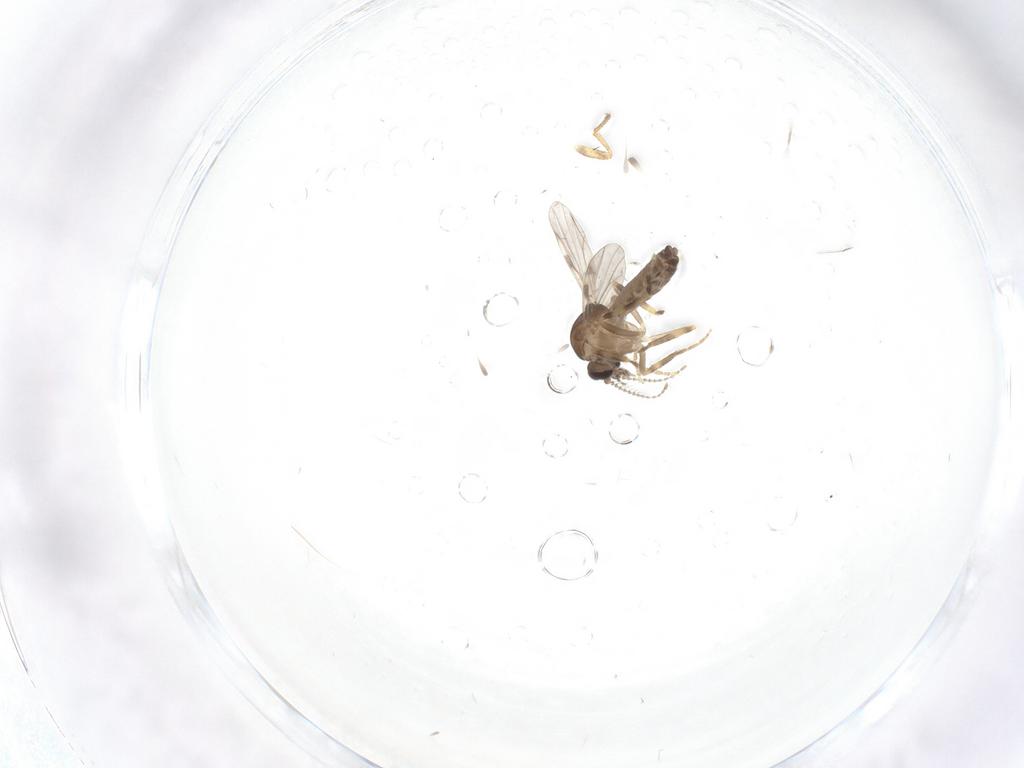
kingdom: Animalia
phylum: Arthropoda
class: Insecta
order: Diptera
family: Ceratopogonidae
